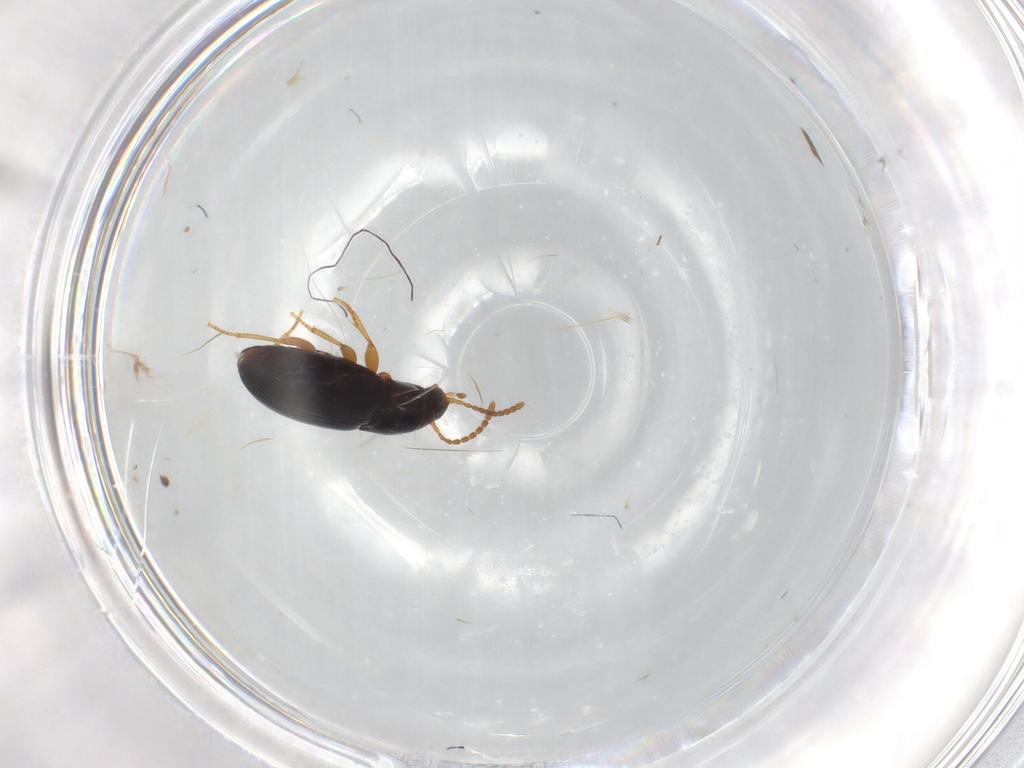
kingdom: Animalia
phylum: Arthropoda
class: Insecta
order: Coleoptera
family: Carabidae
